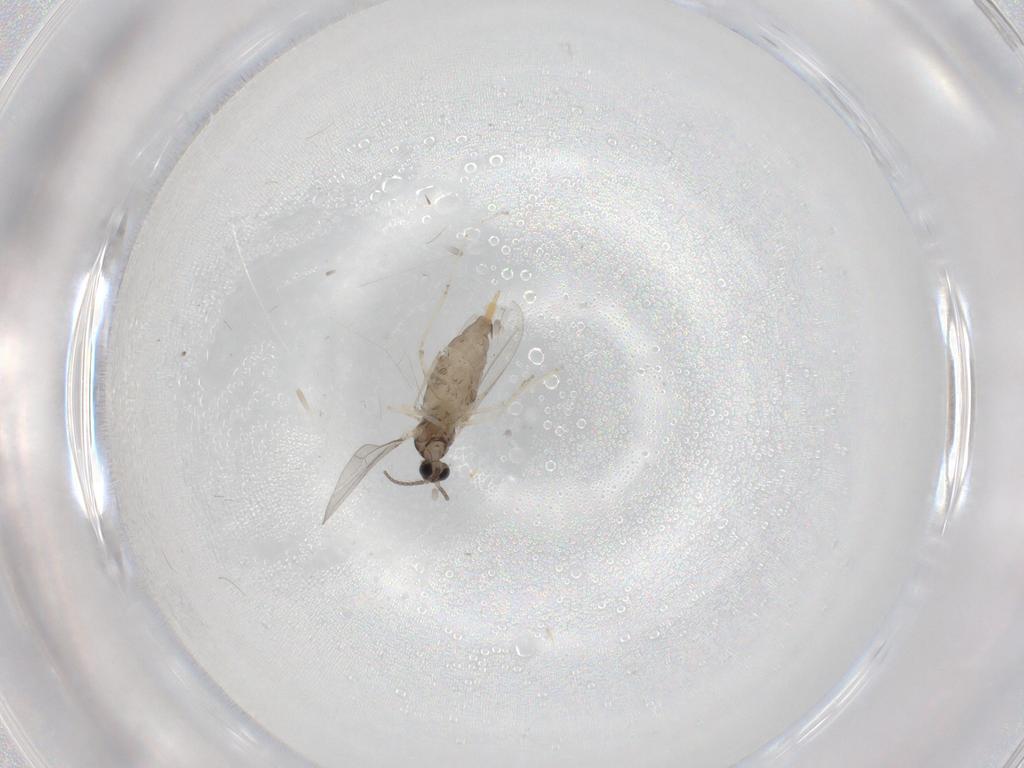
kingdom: Animalia
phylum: Arthropoda
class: Insecta
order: Diptera
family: Cecidomyiidae
